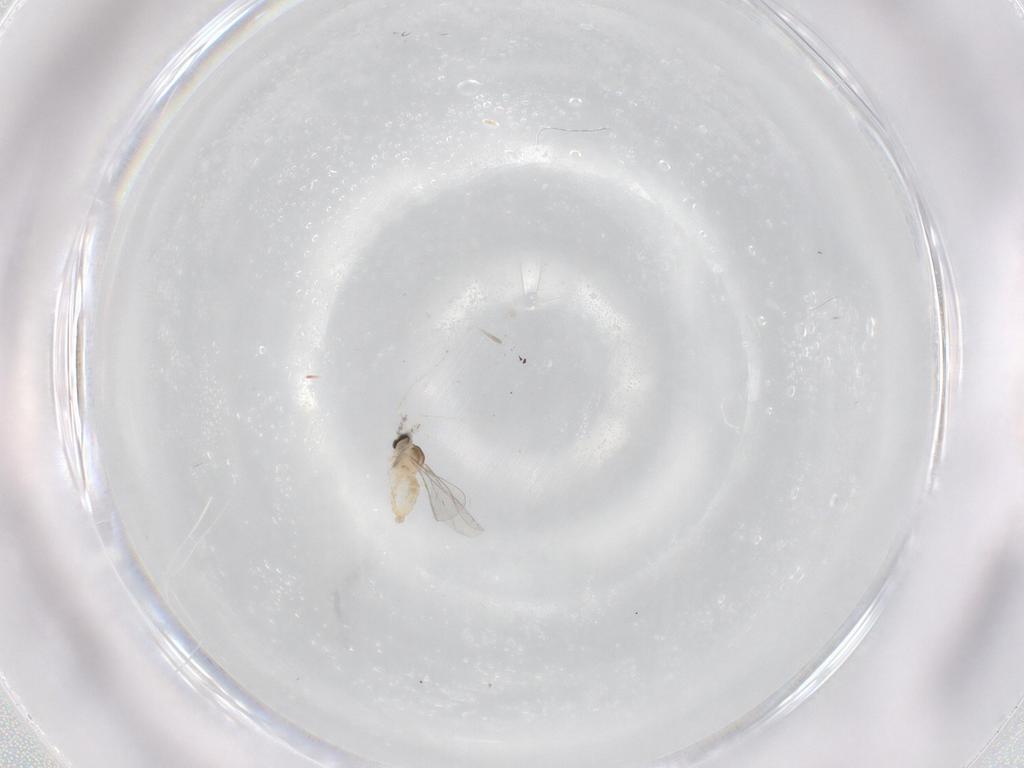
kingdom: Animalia
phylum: Arthropoda
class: Insecta
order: Diptera
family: Cecidomyiidae
